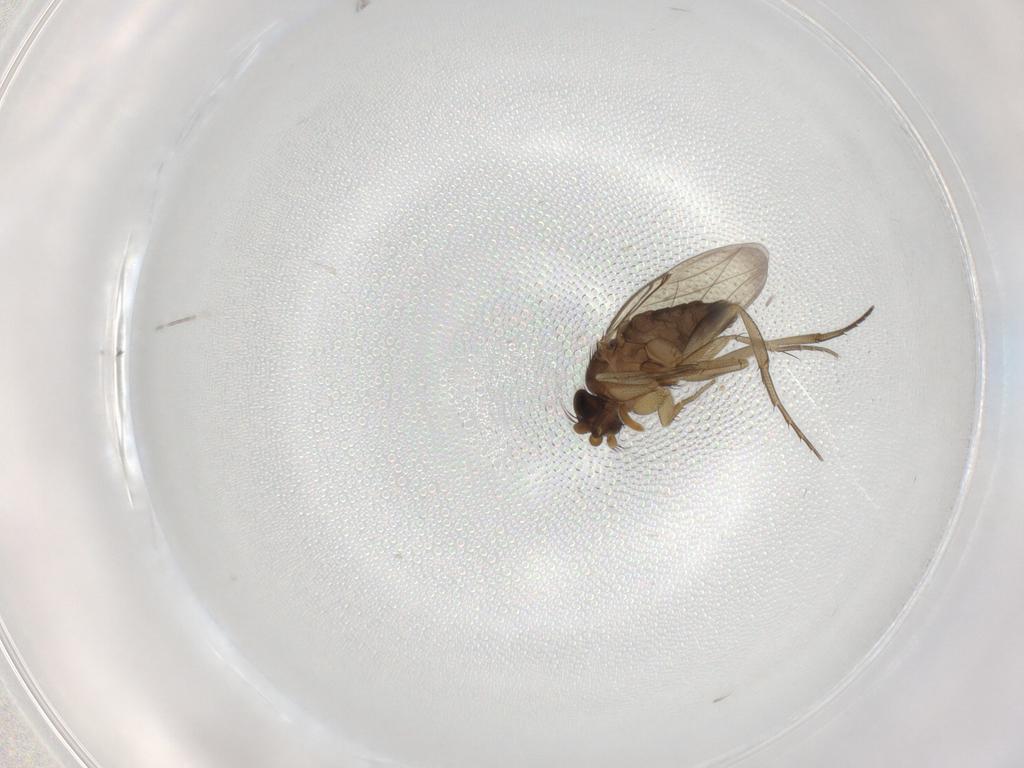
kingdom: Animalia
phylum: Arthropoda
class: Insecta
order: Diptera
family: Phoridae
